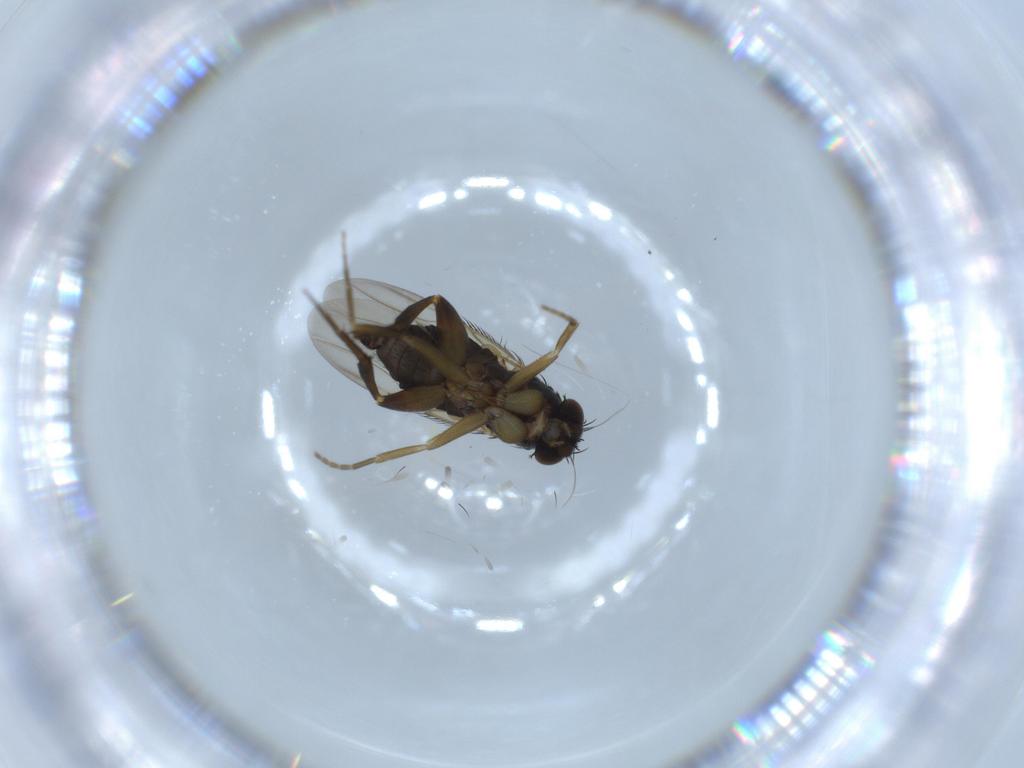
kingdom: Animalia
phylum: Arthropoda
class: Insecta
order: Diptera
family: Phoridae
